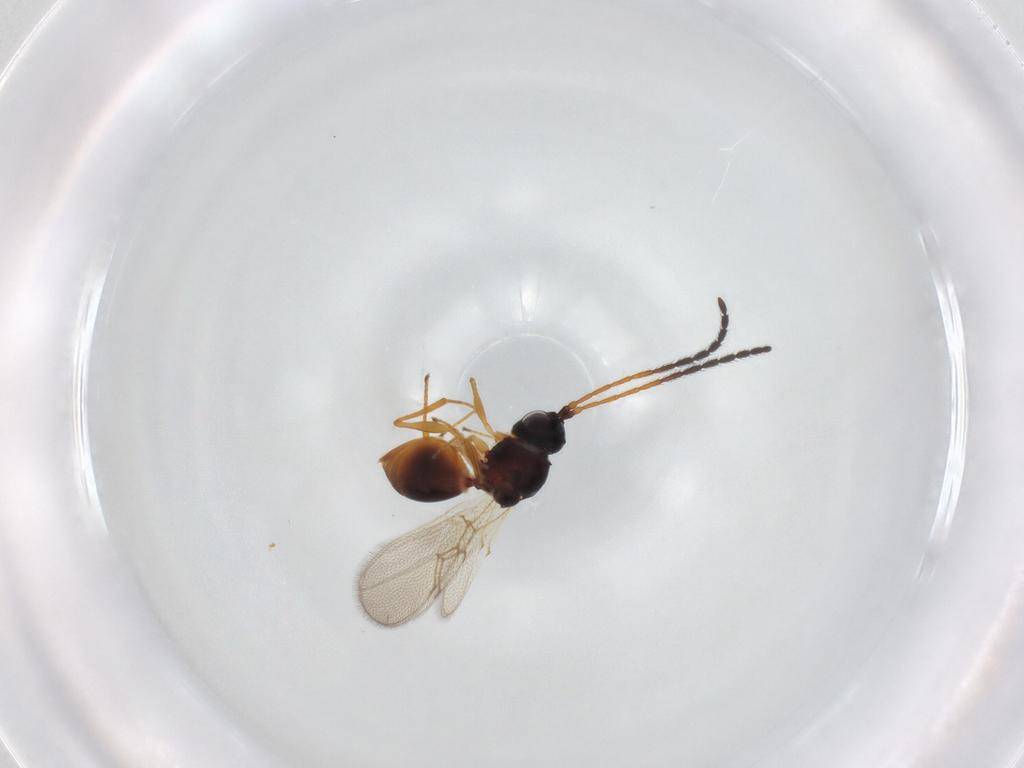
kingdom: Animalia
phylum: Arthropoda
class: Insecta
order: Hymenoptera
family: Figitidae
